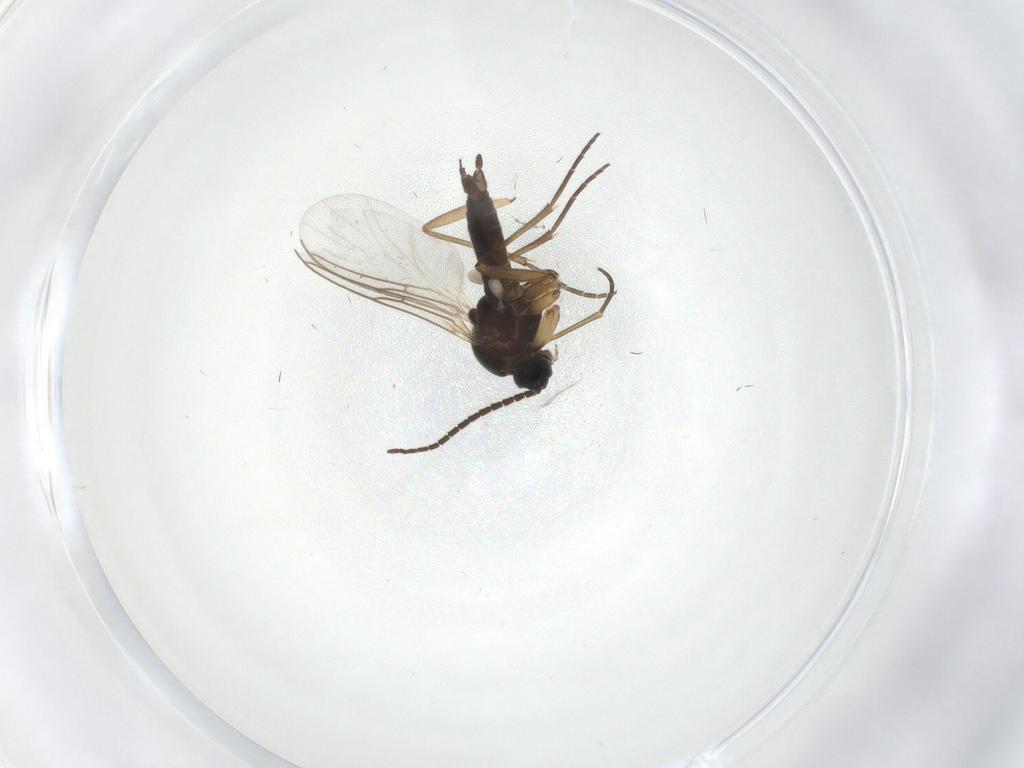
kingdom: Animalia
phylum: Arthropoda
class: Insecta
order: Diptera
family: Cecidomyiidae
